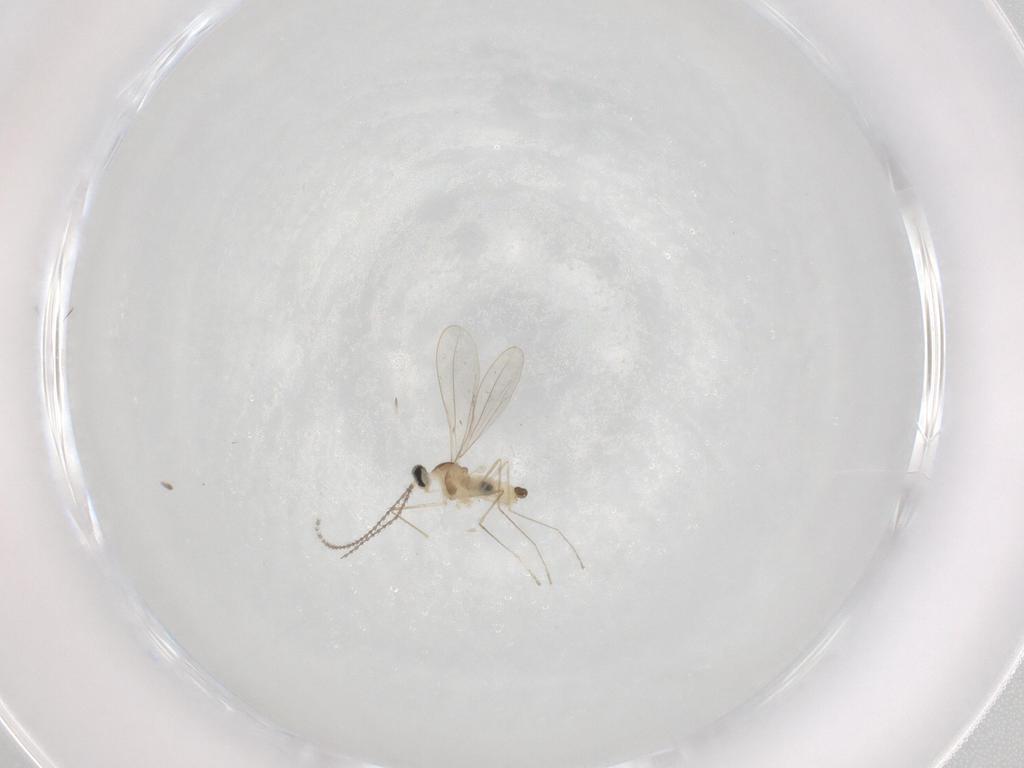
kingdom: Animalia
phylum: Arthropoda
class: Insecta
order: Diptera
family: Cecidomyiidae
